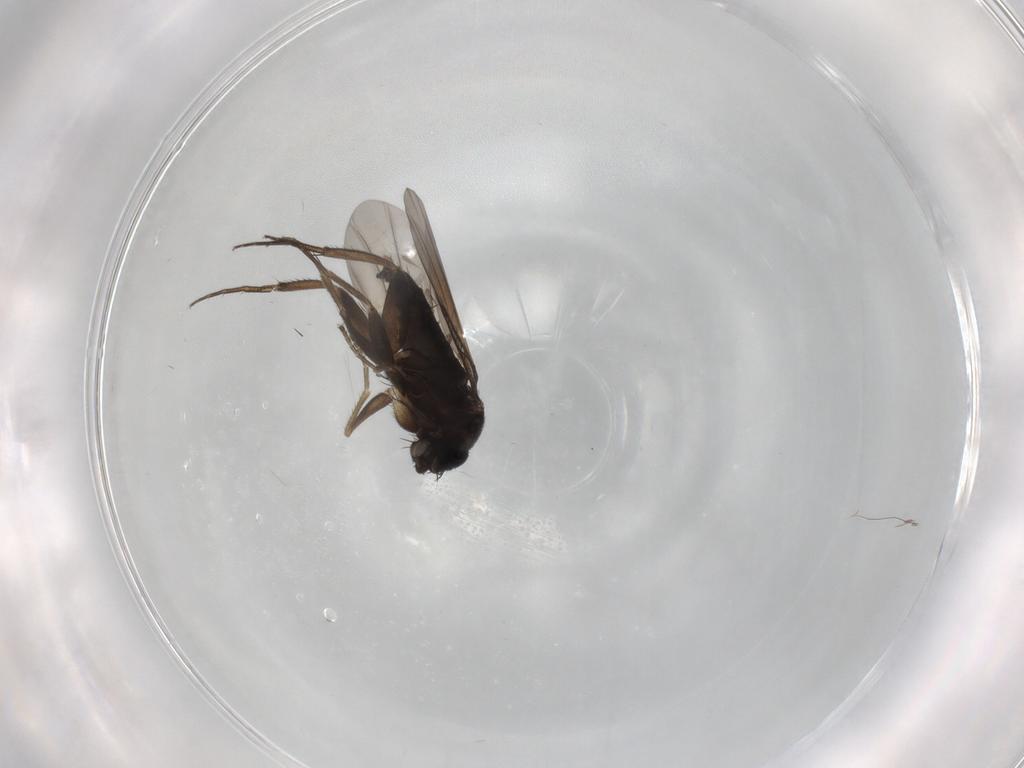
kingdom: Animalia
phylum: Arthropoda
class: Insecta
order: Diptera
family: Phoridae
